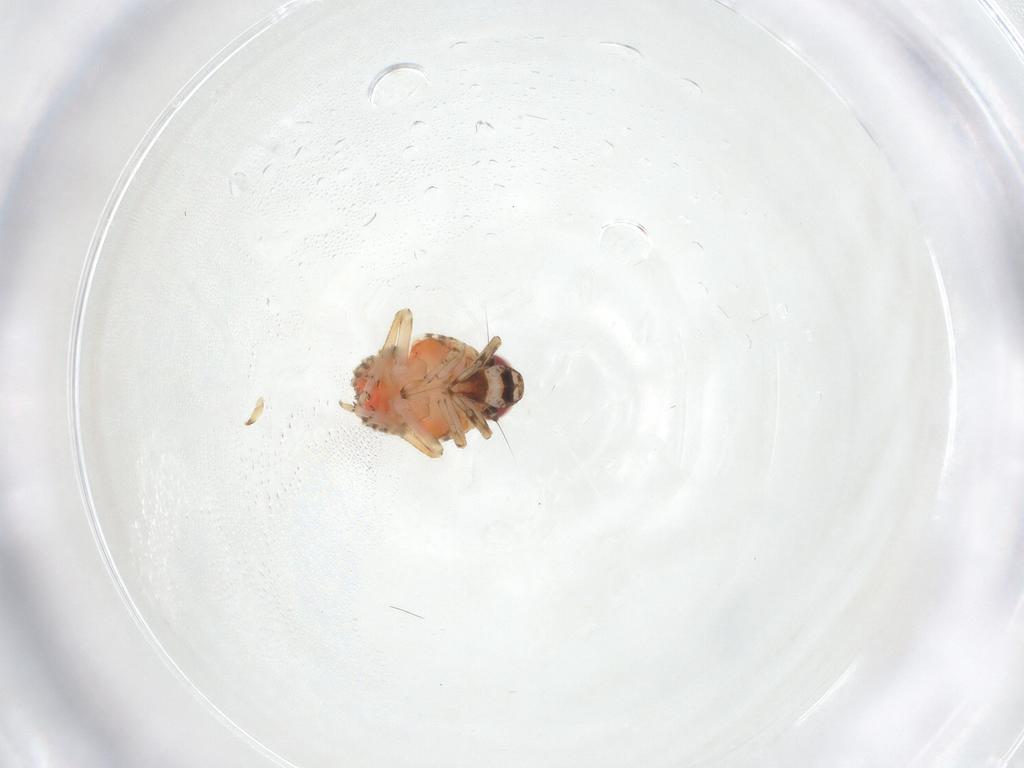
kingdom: Animalia
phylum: Arthropoda
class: Insecta
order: Hemiptera
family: Issidae
